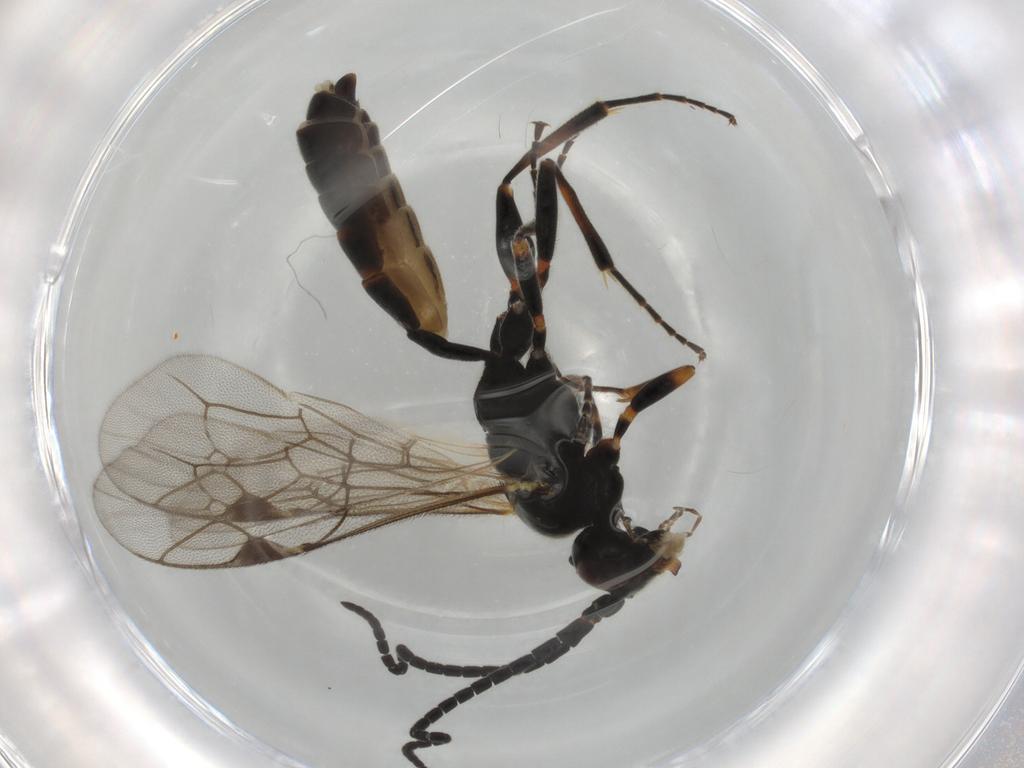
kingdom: Animalia
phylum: Arthropoda
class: Insecta
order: Hymenoptera
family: Ichneumonidae
